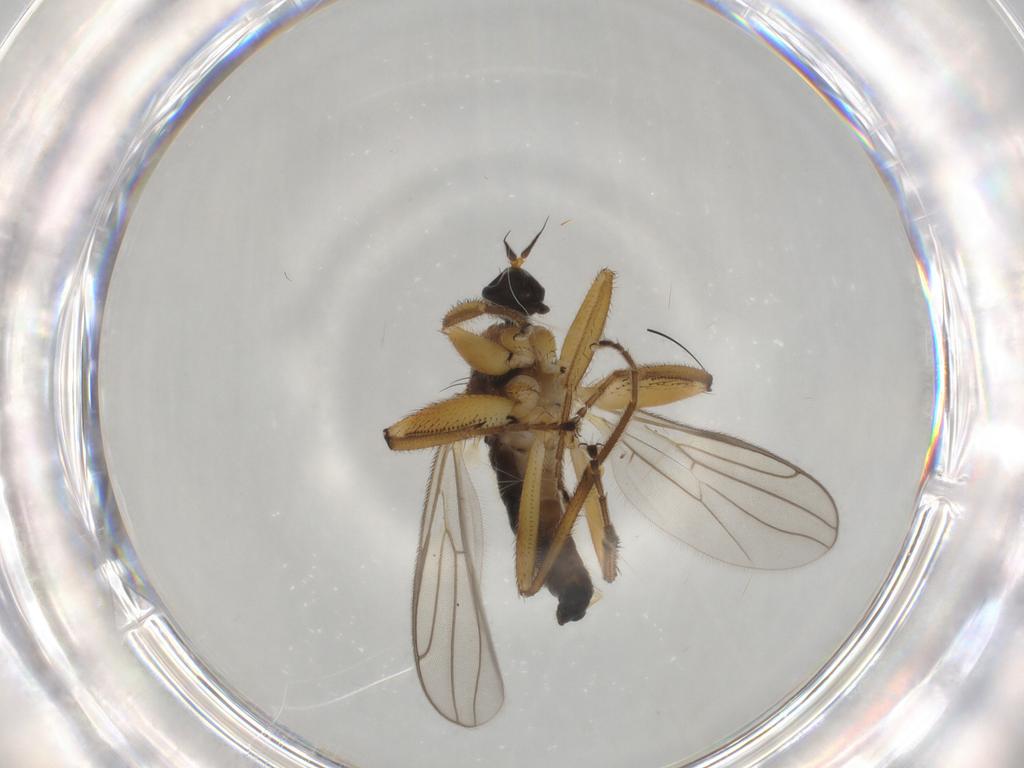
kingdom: Animalia
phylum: Arthropoda
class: Insecta
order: Diptera
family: Hybotidae
